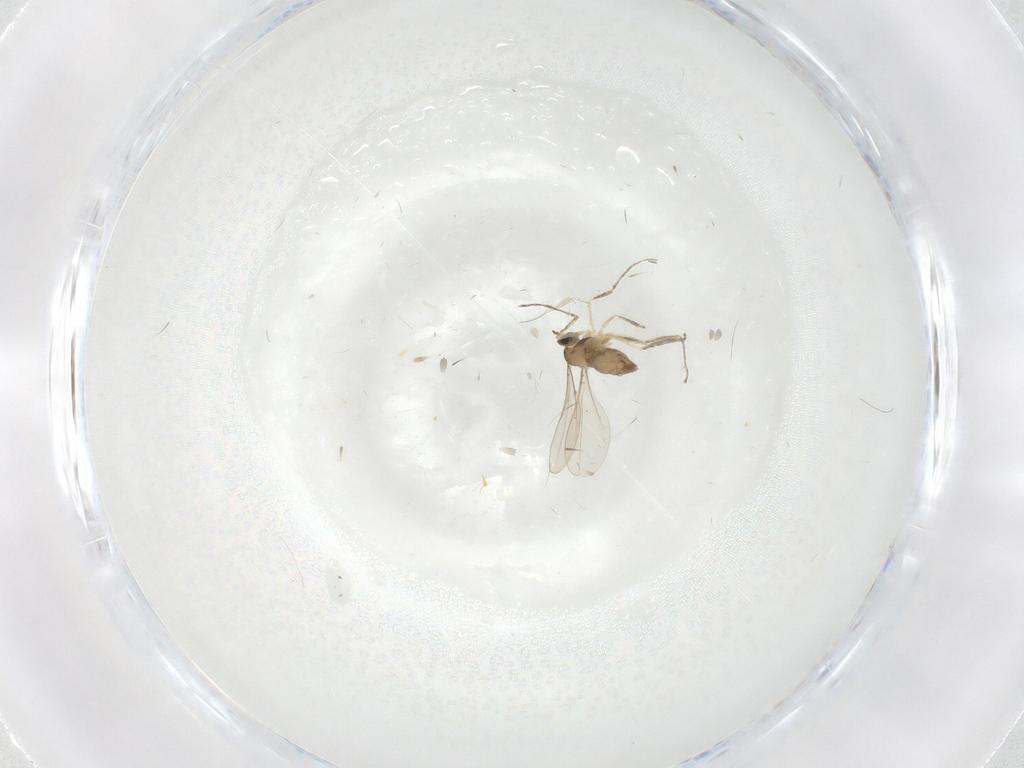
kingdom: Animalia
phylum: Arthropoda
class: Insecta
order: Diptera
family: Cecidomyiidae
